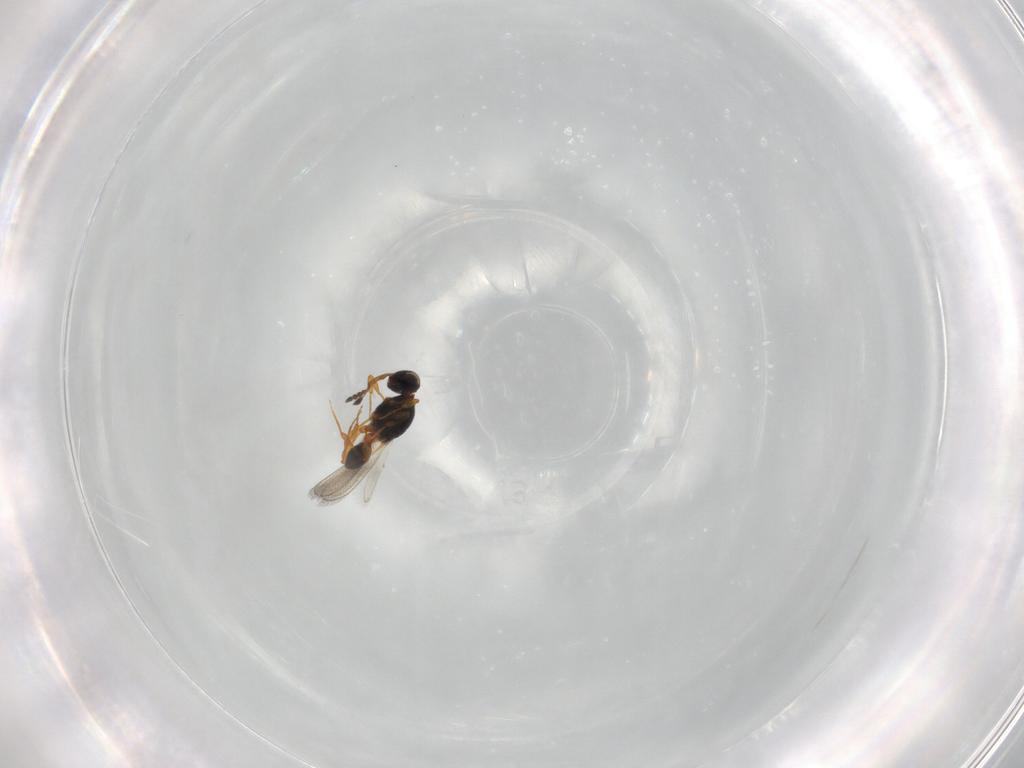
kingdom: Animalia
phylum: Arthropoda
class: Insecta
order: Hymenoptera
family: Platygastridae
